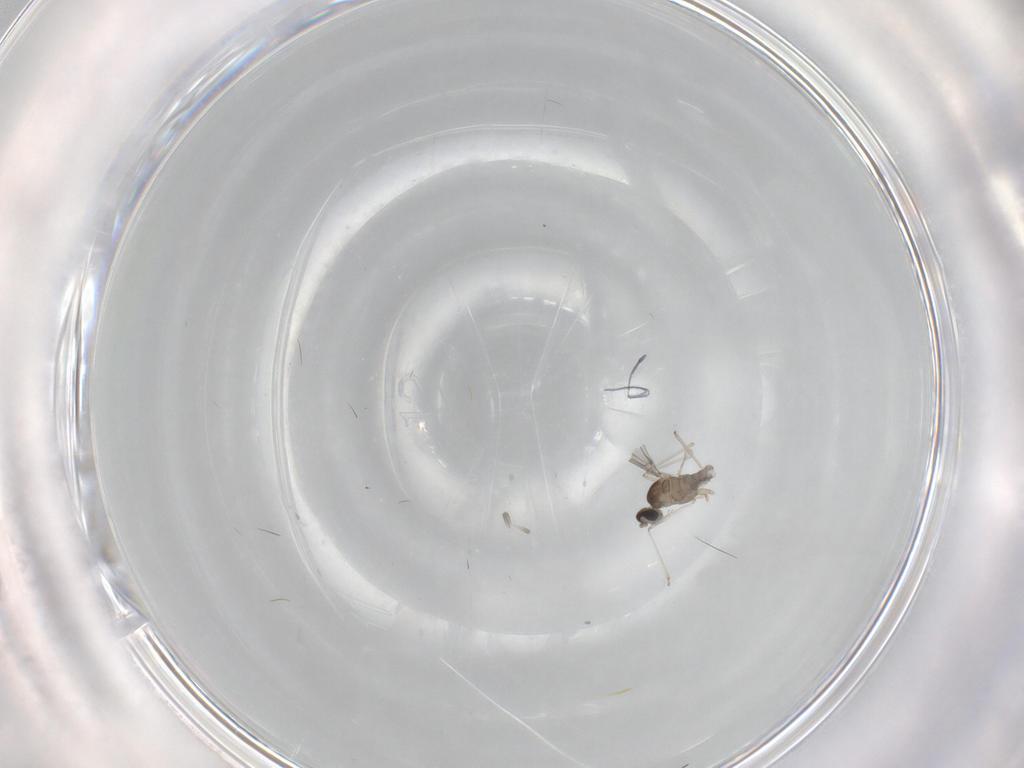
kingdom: Animalia
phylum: Arthropoda
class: Insecta
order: Diptera
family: Cecidomyiidae
